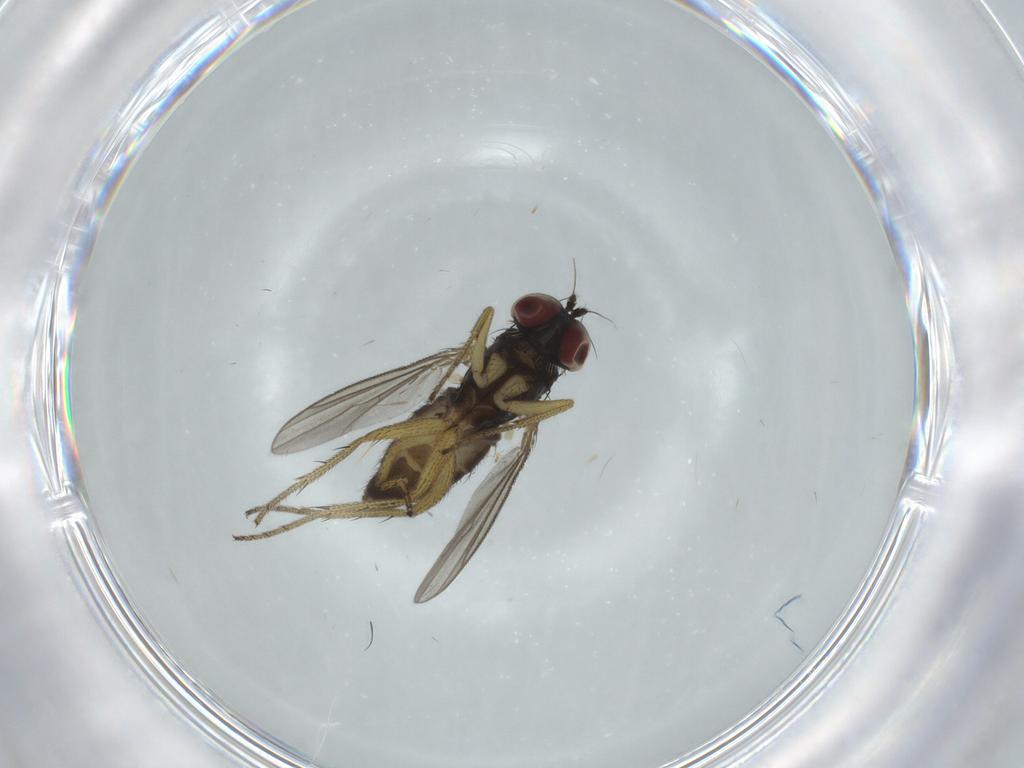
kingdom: Animalia
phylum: Arthropoda
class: Insecta
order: Diptera
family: Dolichopodidae
